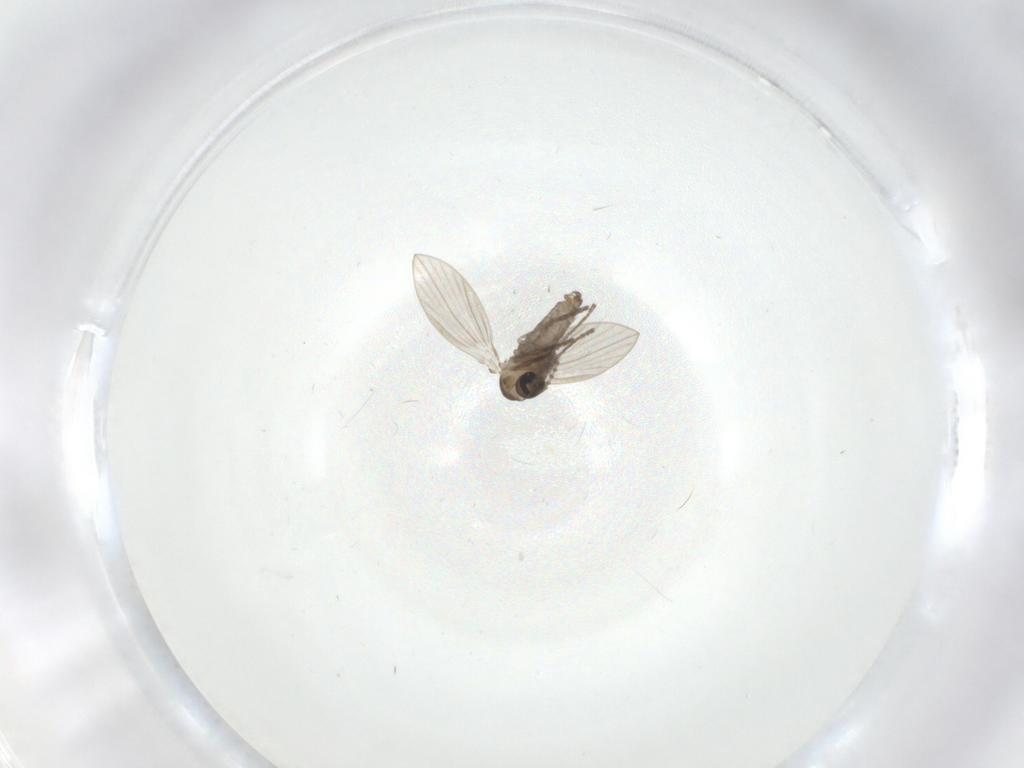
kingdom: Animalia
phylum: Arthropoda
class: Insecta
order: Diptera
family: Psychodidae
